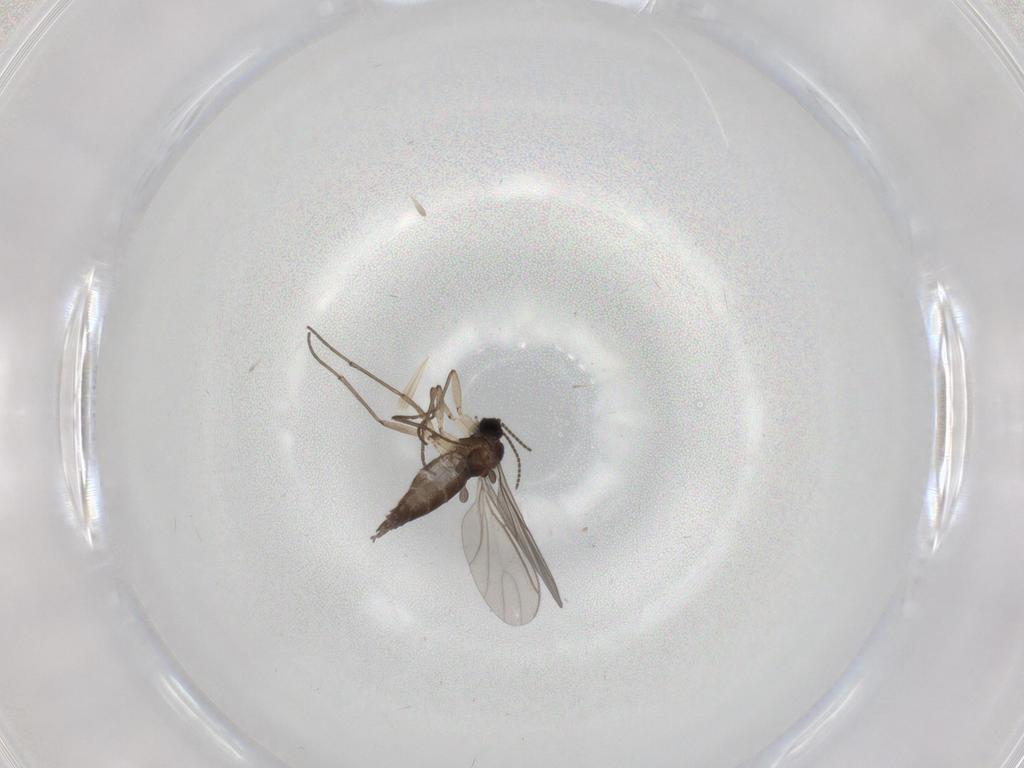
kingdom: Animalia
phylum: Arthropoda
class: Insecta
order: Diptera
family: Sciaridae
